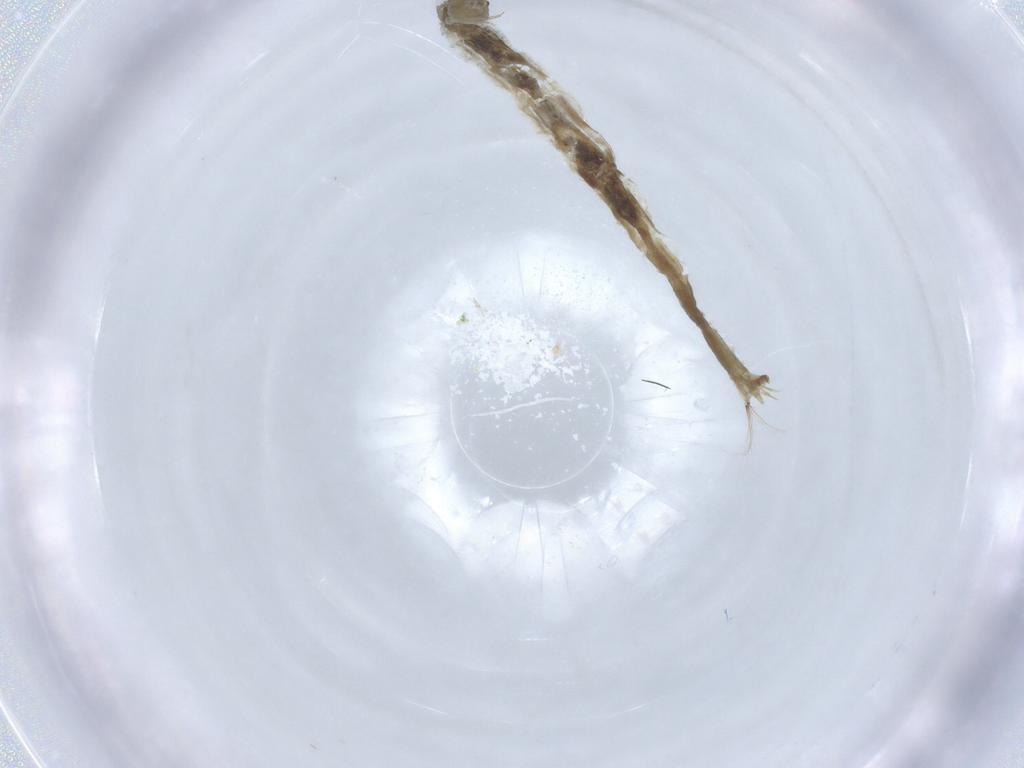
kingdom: Animalia
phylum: Arthropoda
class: Insecta
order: Diptera
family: Chironomidae
